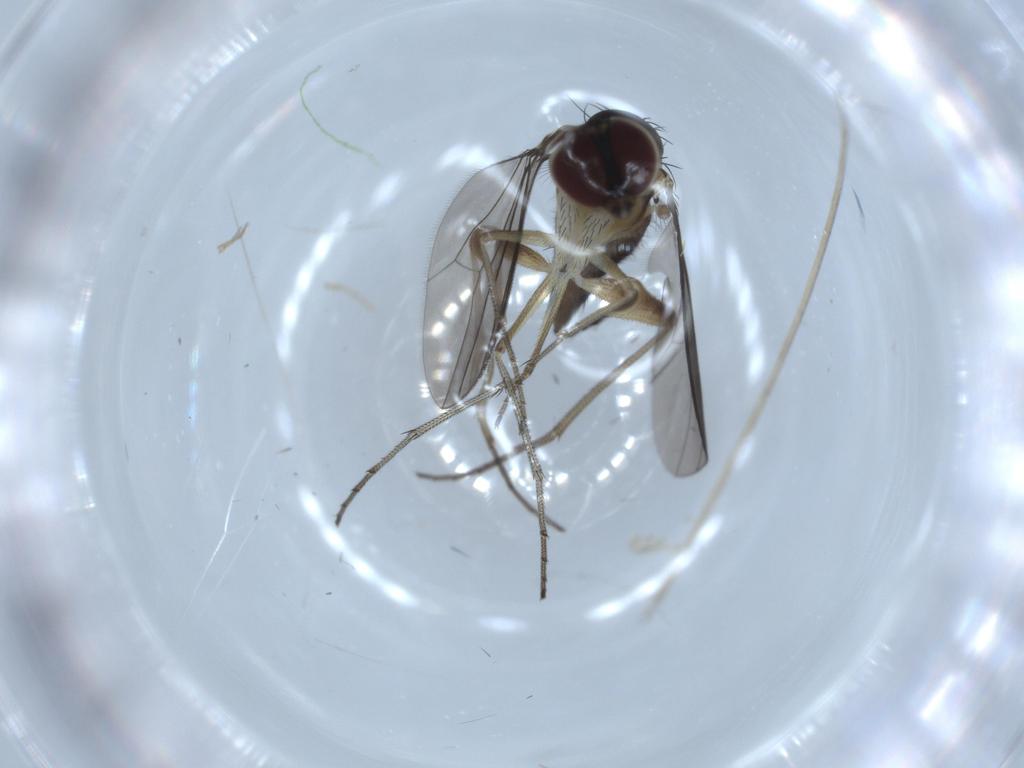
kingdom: Animalia
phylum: Arthropoda
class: Insecta
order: Diptera
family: Dolichopodidae
